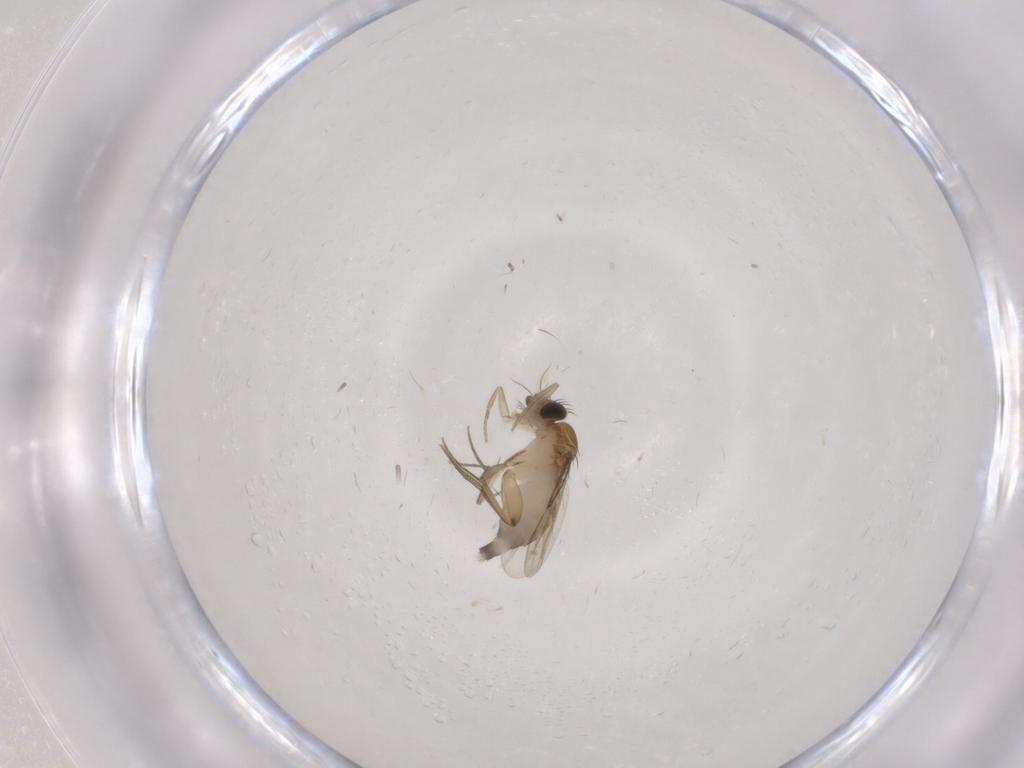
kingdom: Animalia
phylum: Arthropoda
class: Insecta
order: Diptera
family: Phoridae
